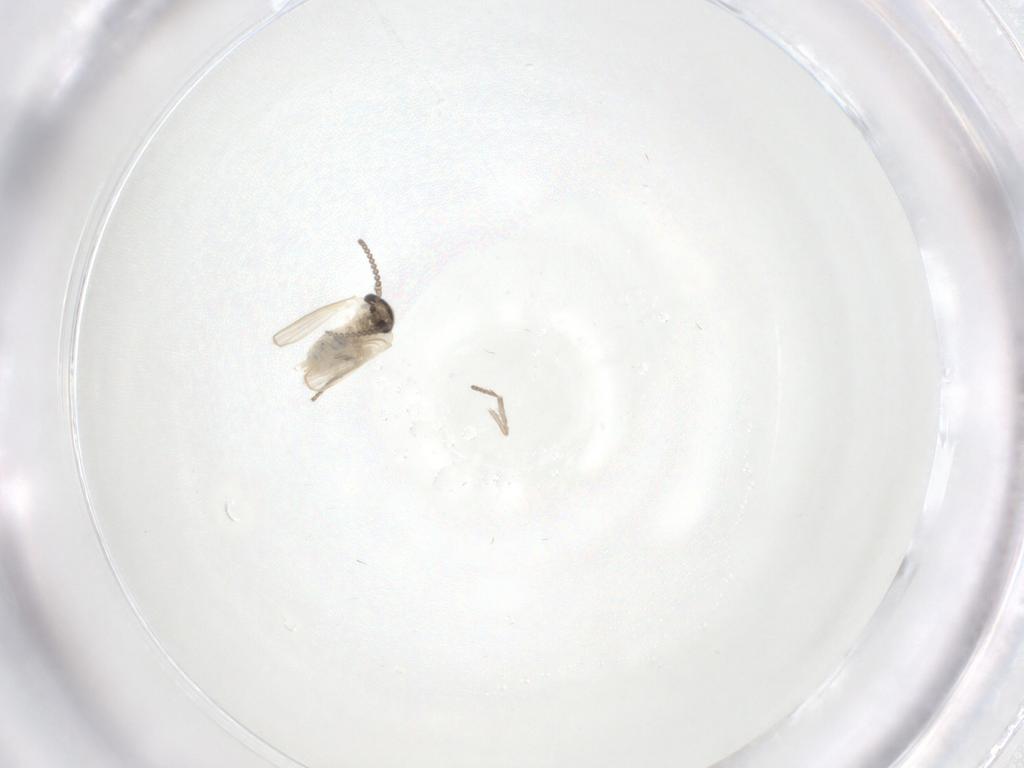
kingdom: Animalia
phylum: Arthropoda
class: Insecta
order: Diptera
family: Psychodidae
